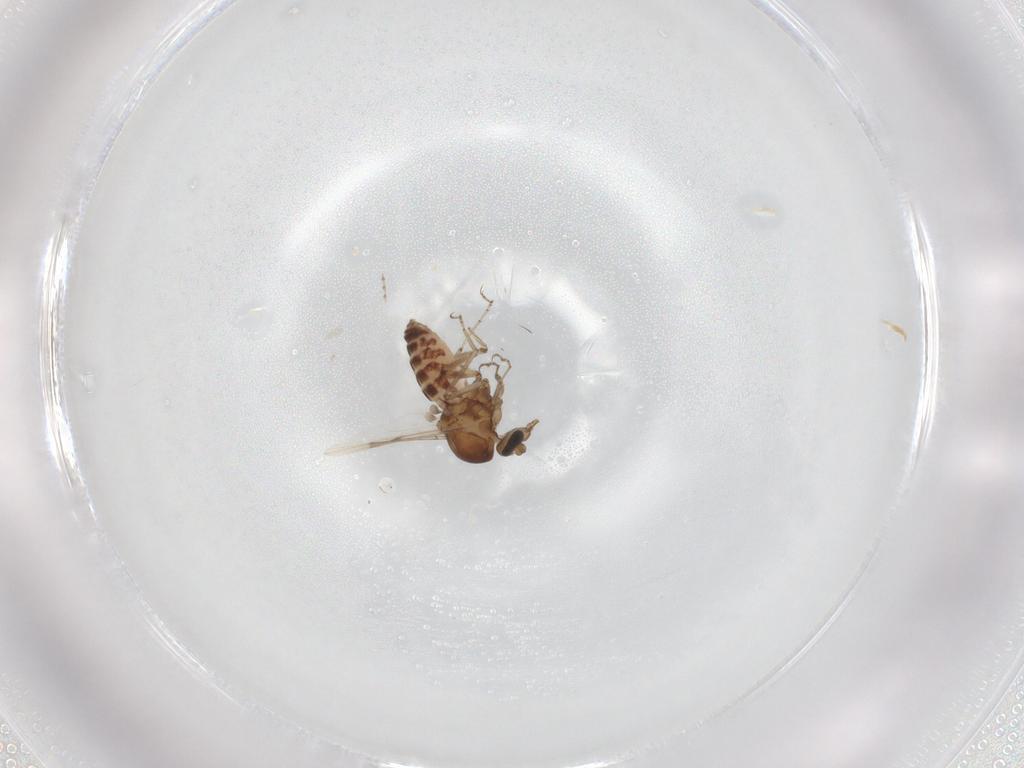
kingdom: Animalia
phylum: Arthropoda
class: Insecta
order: Diptera
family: Ceratopogonidae
